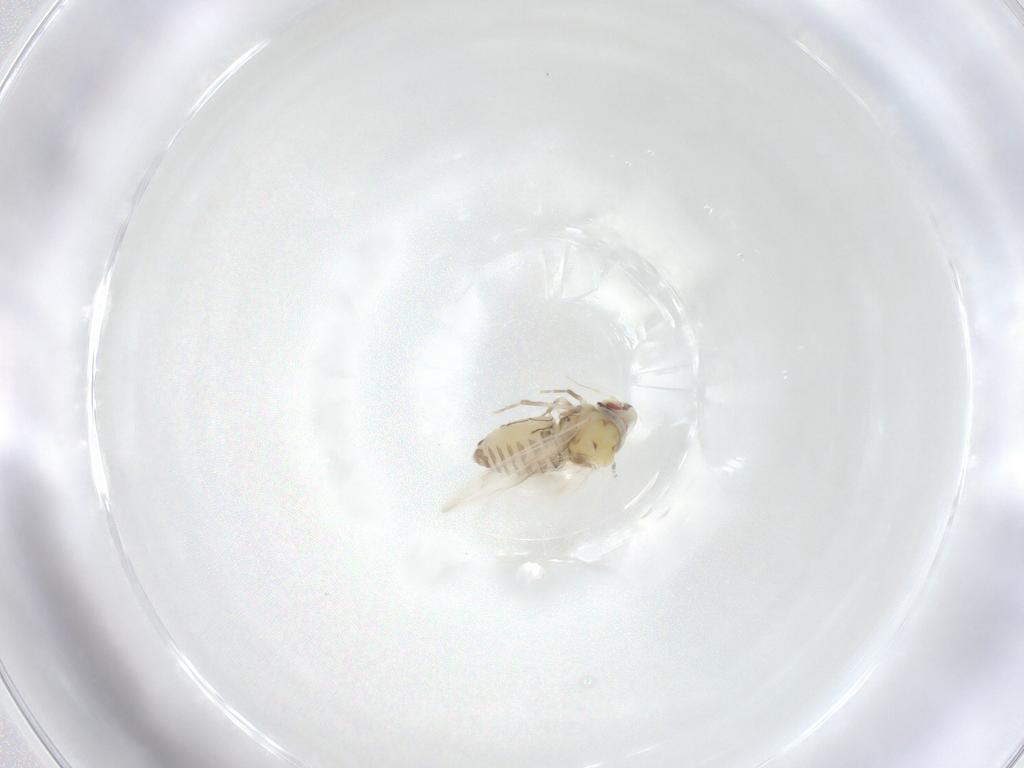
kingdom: Animalia
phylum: Arthropoda
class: Insecta
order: Hemiptera
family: Aleyrodidae
